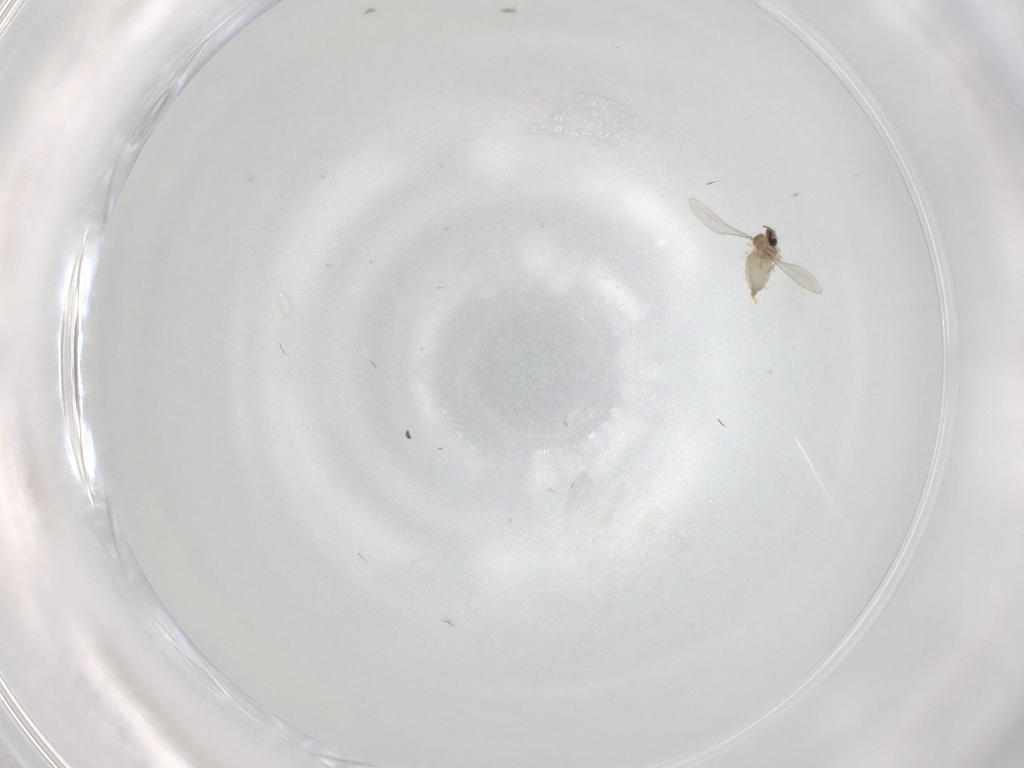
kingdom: Animalia
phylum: Arthropoda
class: Insecta
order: Diptera
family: Cecidomyiidae
